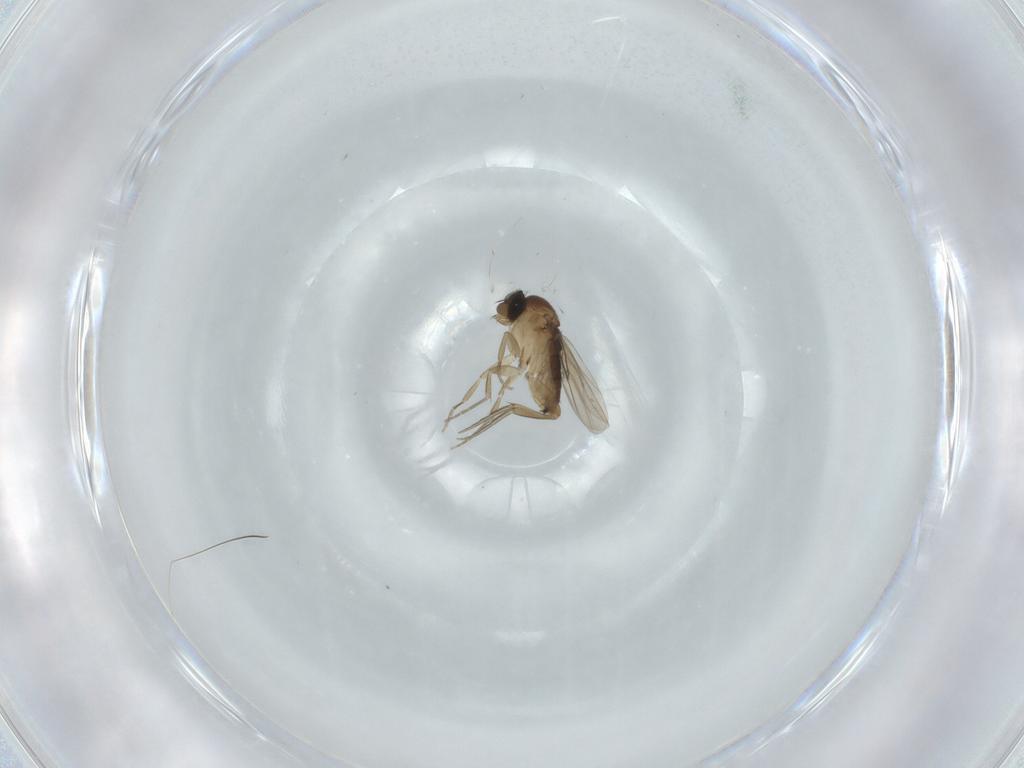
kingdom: Animalia
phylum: Arthropoda
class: Insecta
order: Diptera
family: Phoridae
